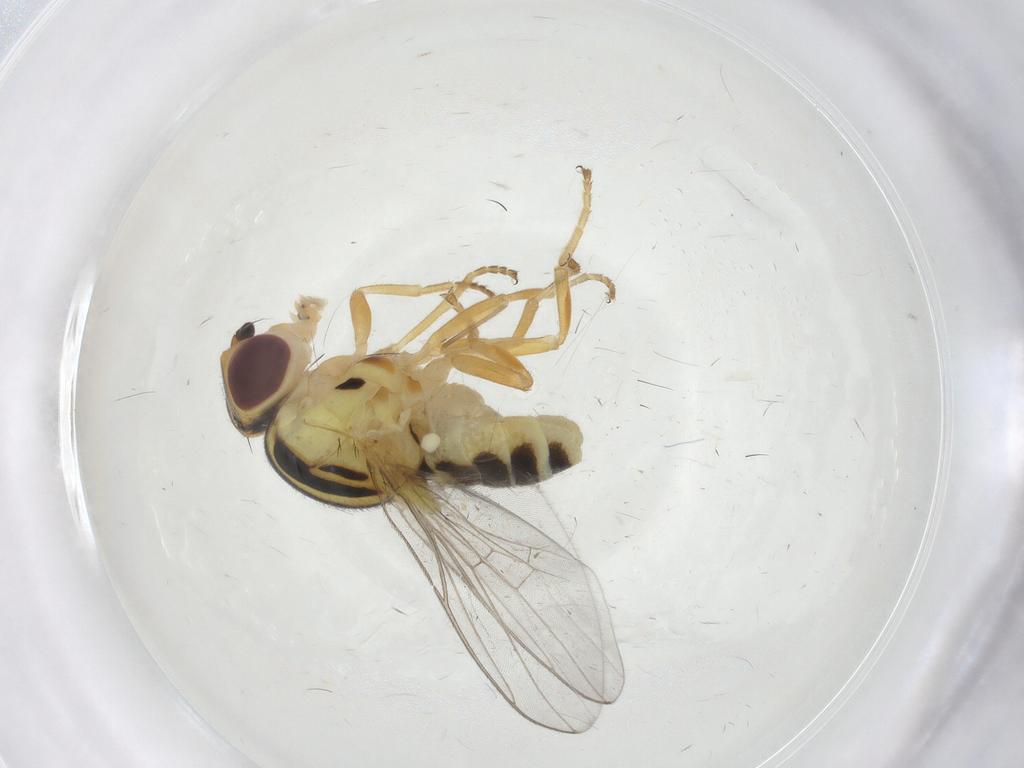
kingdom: Animalia
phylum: Arthropoda
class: Insecta
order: Diptera
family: Chloropidae
